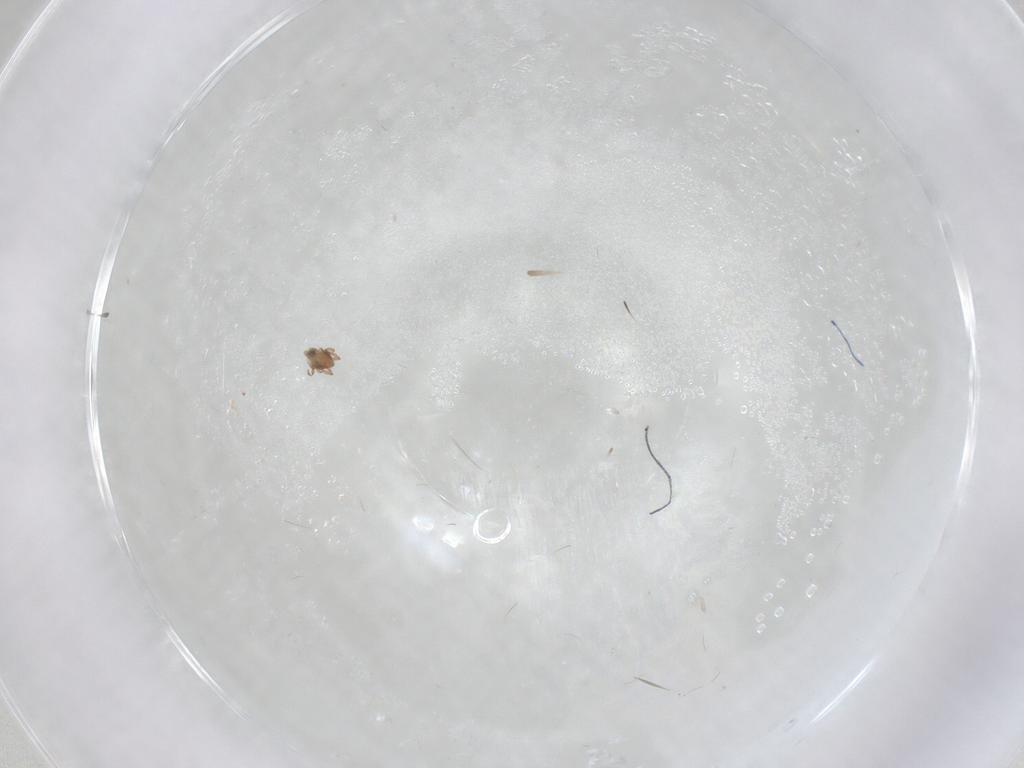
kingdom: Animalia
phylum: Arthropoda
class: Arachnida
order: Sarcoptiformes
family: Scheloribatidae
